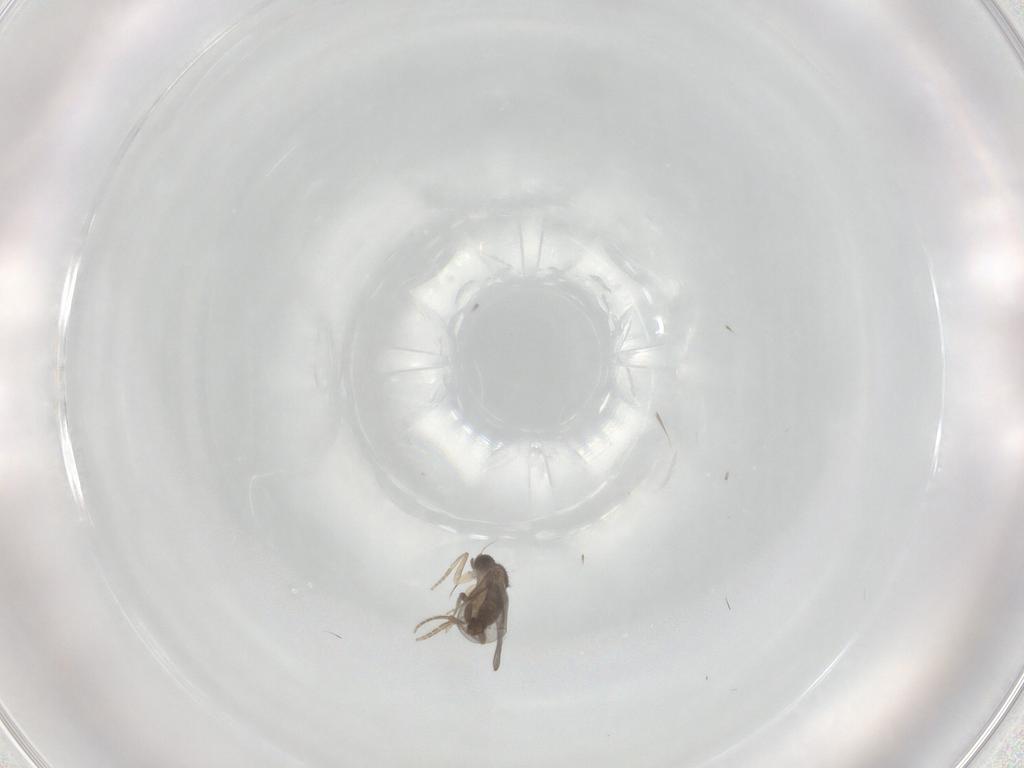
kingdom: Animalia
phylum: Arthropoda
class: Insecta
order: Diptera
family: Chironomidae
